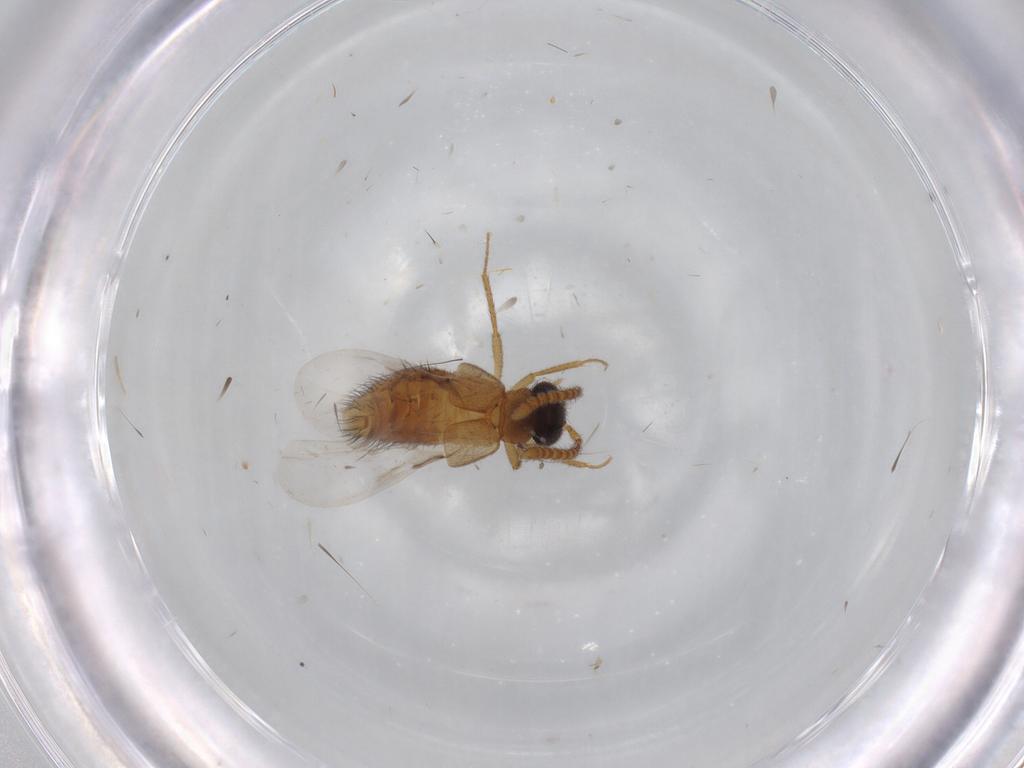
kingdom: Animalia
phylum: Arthropoda
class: Insecta
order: Coleoptera
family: Staphylinidae
